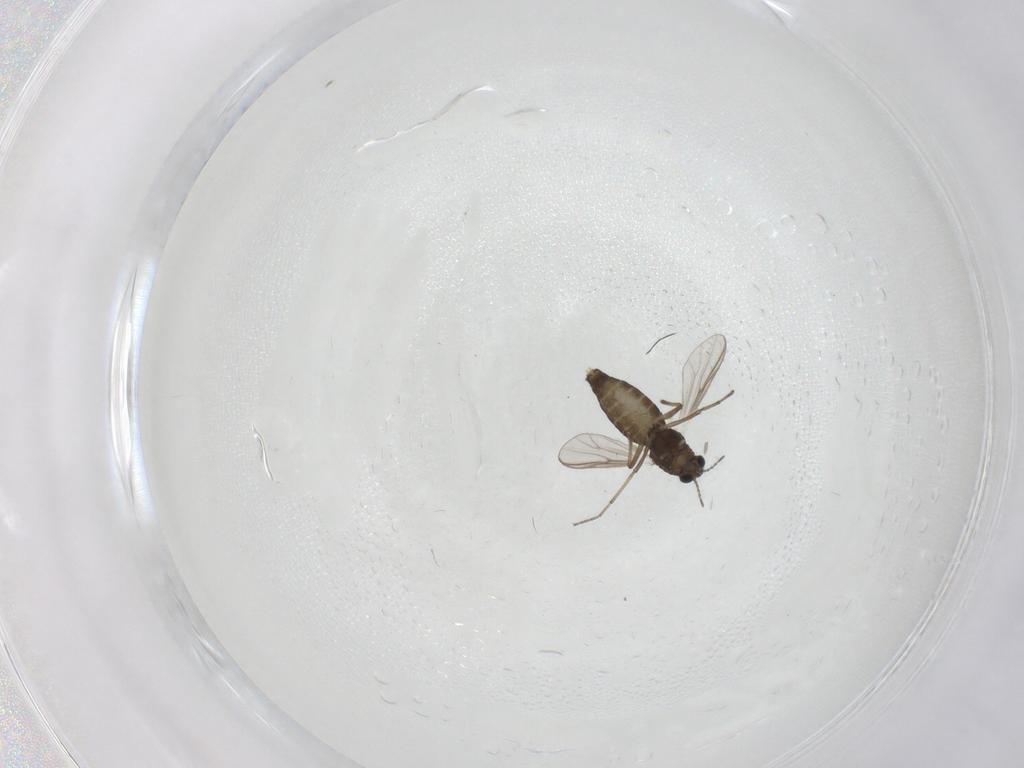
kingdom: Animalia
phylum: Arthropoda
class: Insecta
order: Diptera
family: Chironomidae
